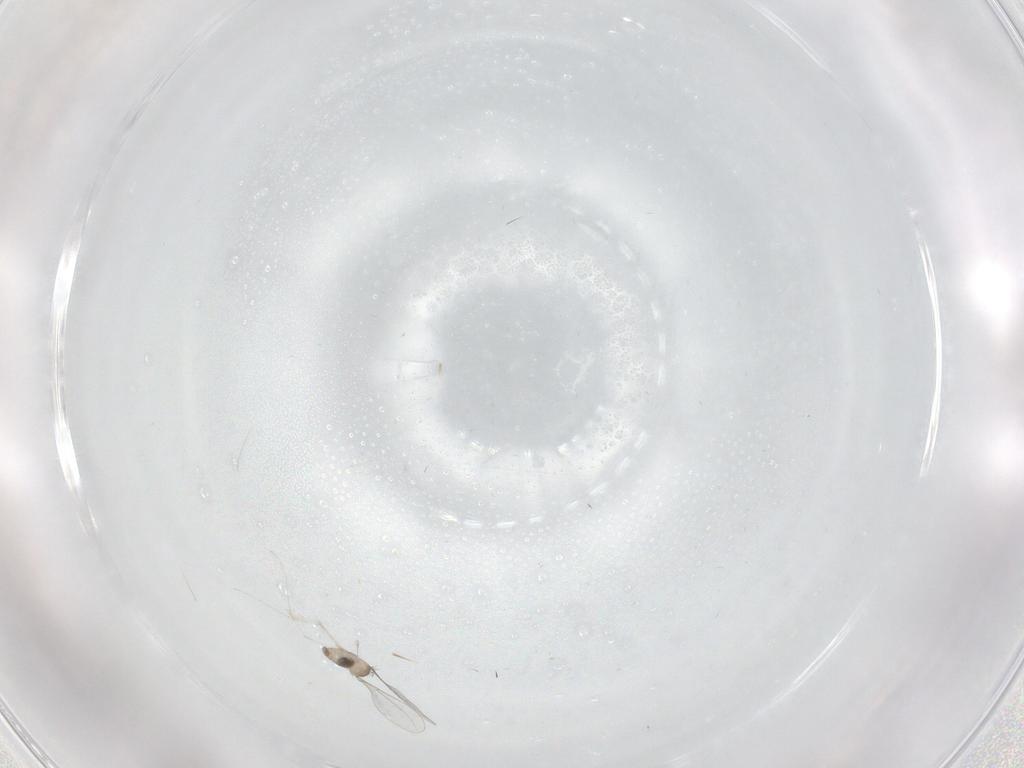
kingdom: Animalia
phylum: Arthropoda
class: Insecta
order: Diptera
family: Cecidomyiidae
